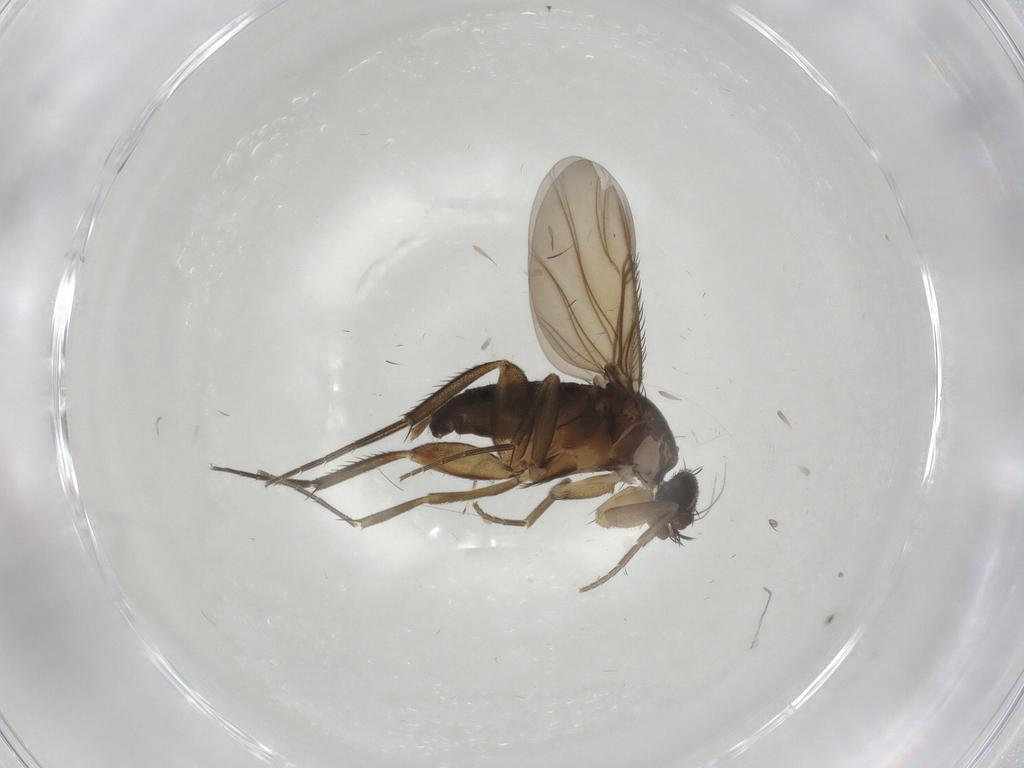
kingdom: Animalia
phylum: Arthropoda
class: Insecta
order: Diptera
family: Phoridae
